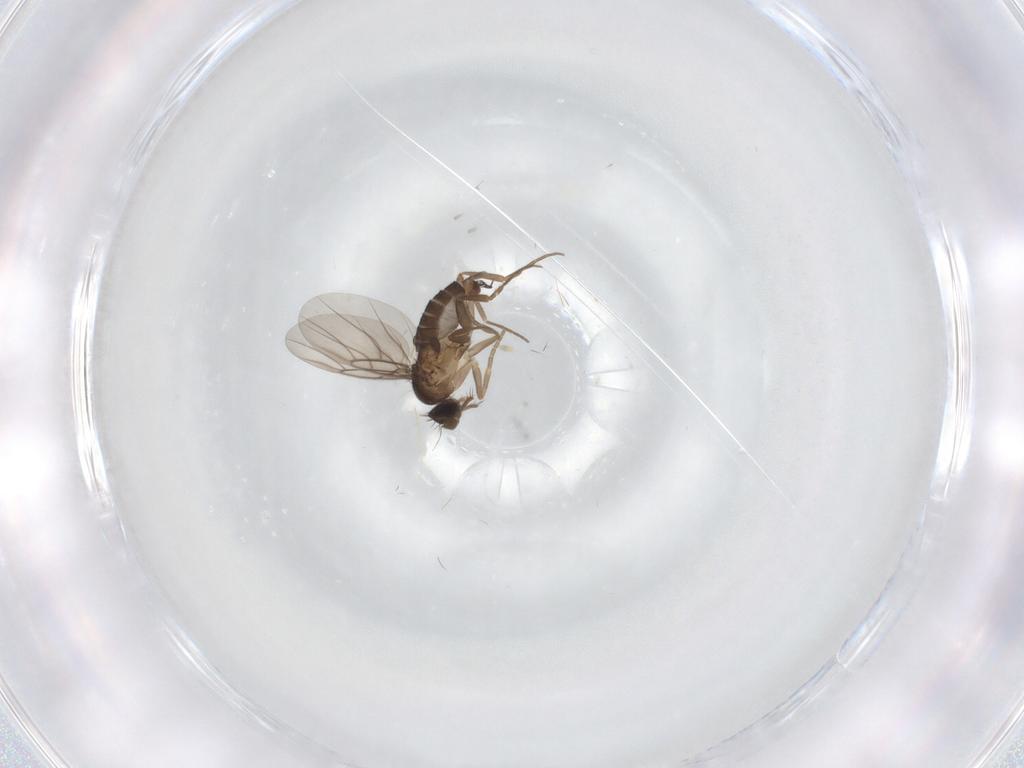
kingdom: Animalia
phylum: Arthropoda
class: Insecta
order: Diptera
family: Phoridae
